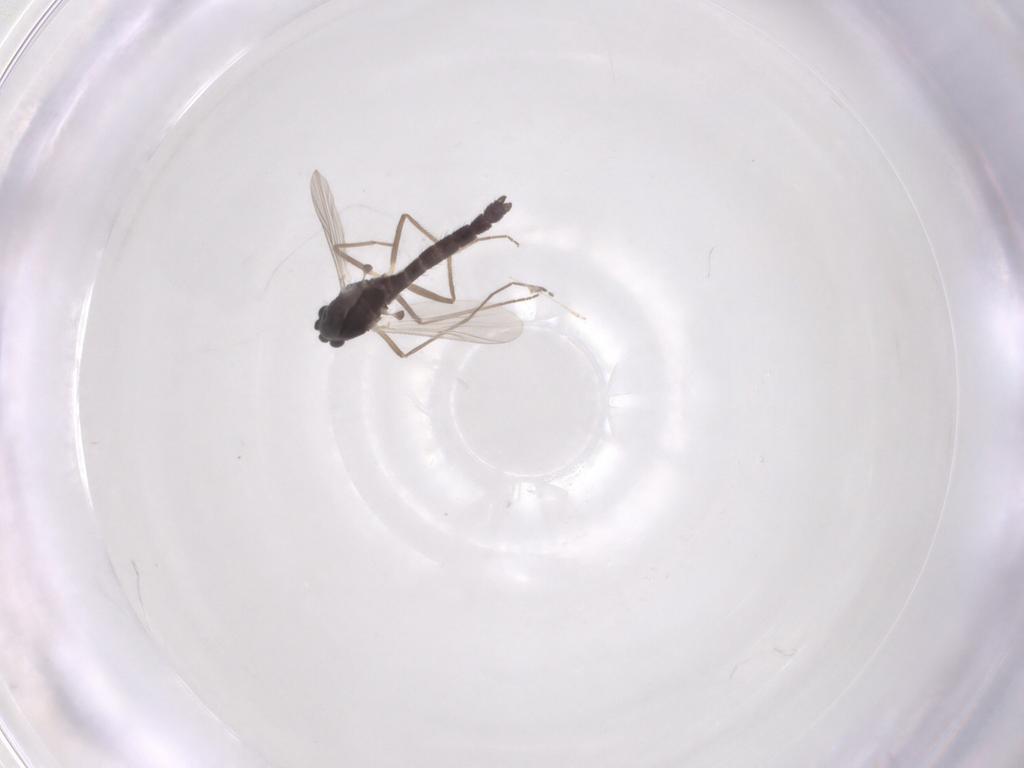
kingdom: Animalia
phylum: Arthropoda
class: Insecta
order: Diptera
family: Chironomidae
